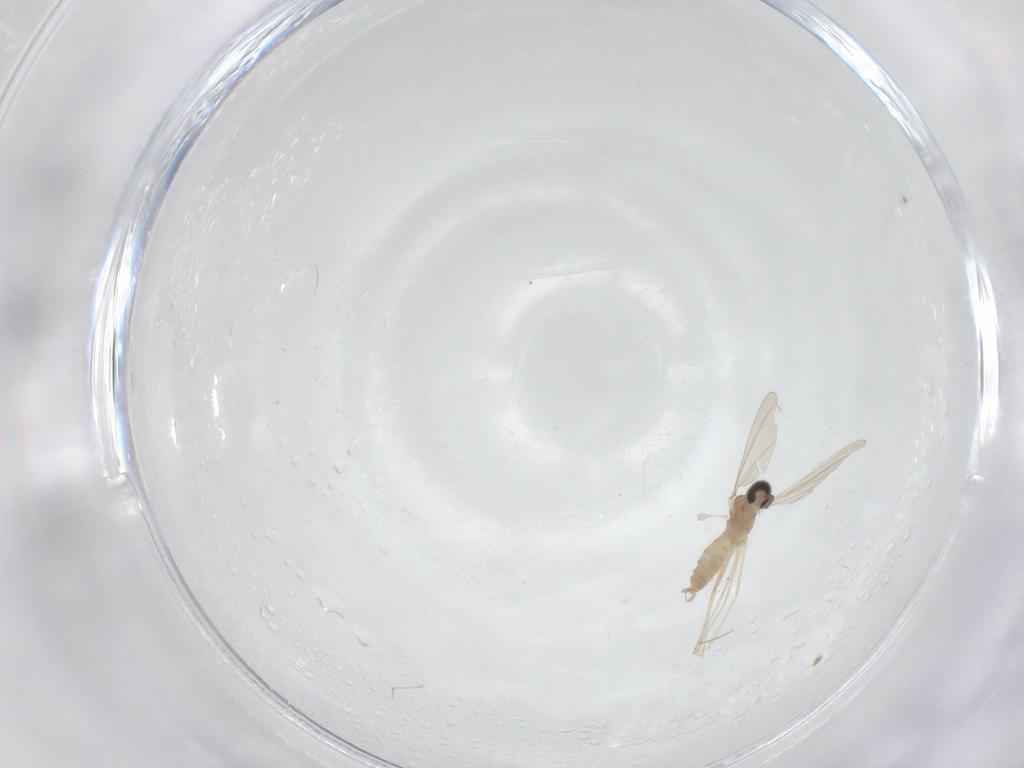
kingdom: Animalia
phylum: Arthropoda
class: Insecta
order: Diptera
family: Cecidomyiidae
